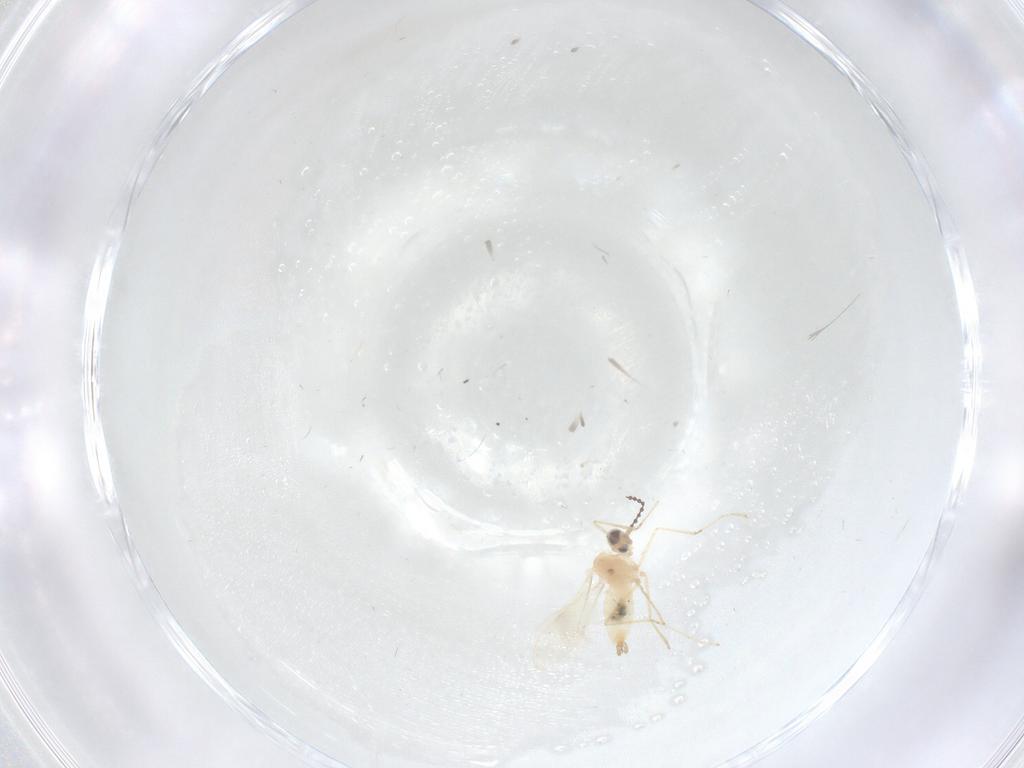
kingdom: Animalia
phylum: Arthropoda
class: Insecta
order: Diptera
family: Cecidomyiidae
